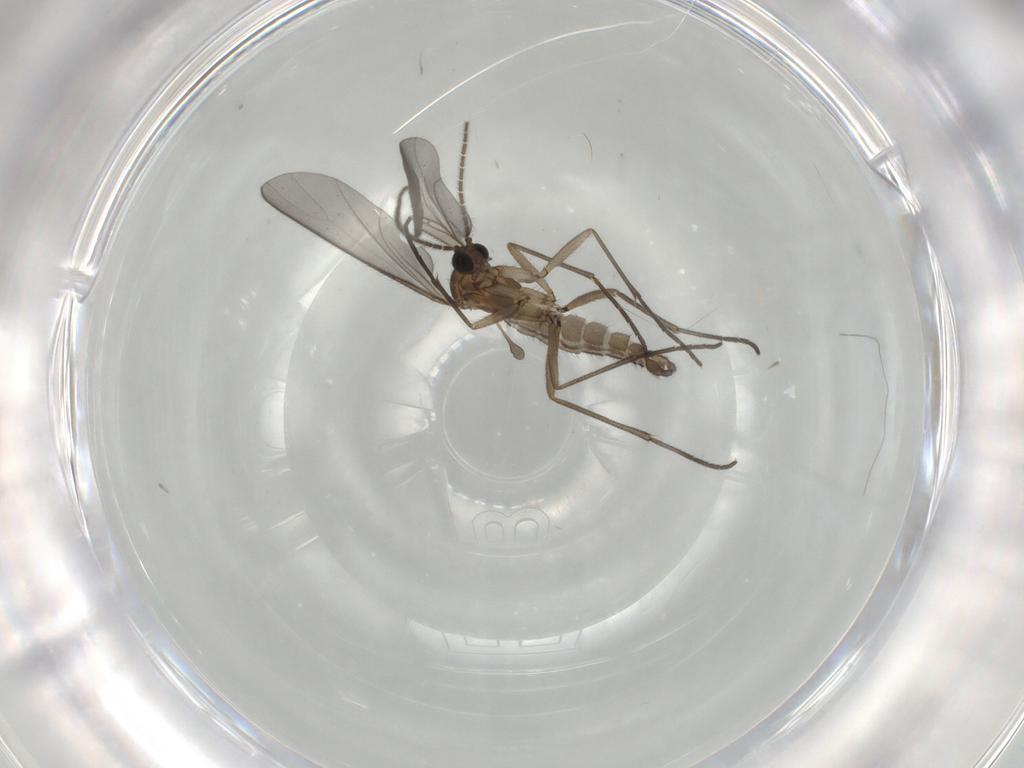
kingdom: Animalia
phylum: Arthropoda
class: Insecta
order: Diptera
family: Sciaridae
